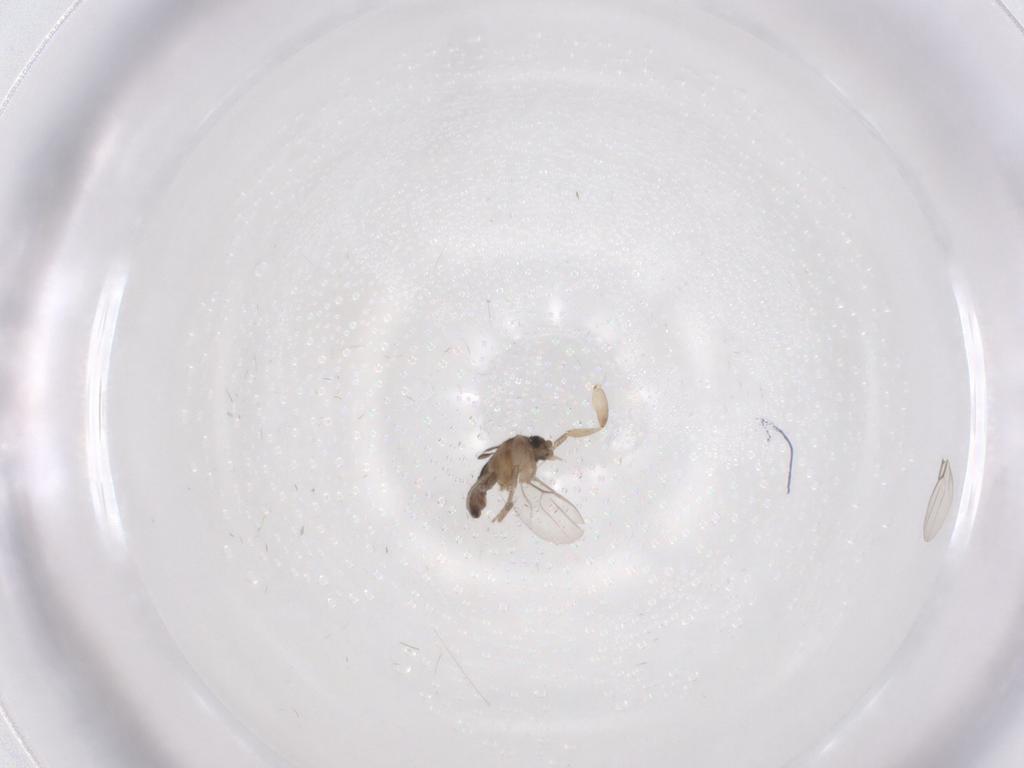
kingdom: Animalia
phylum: Arthropoda
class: Insecta
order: Diptera
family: Phoridae
